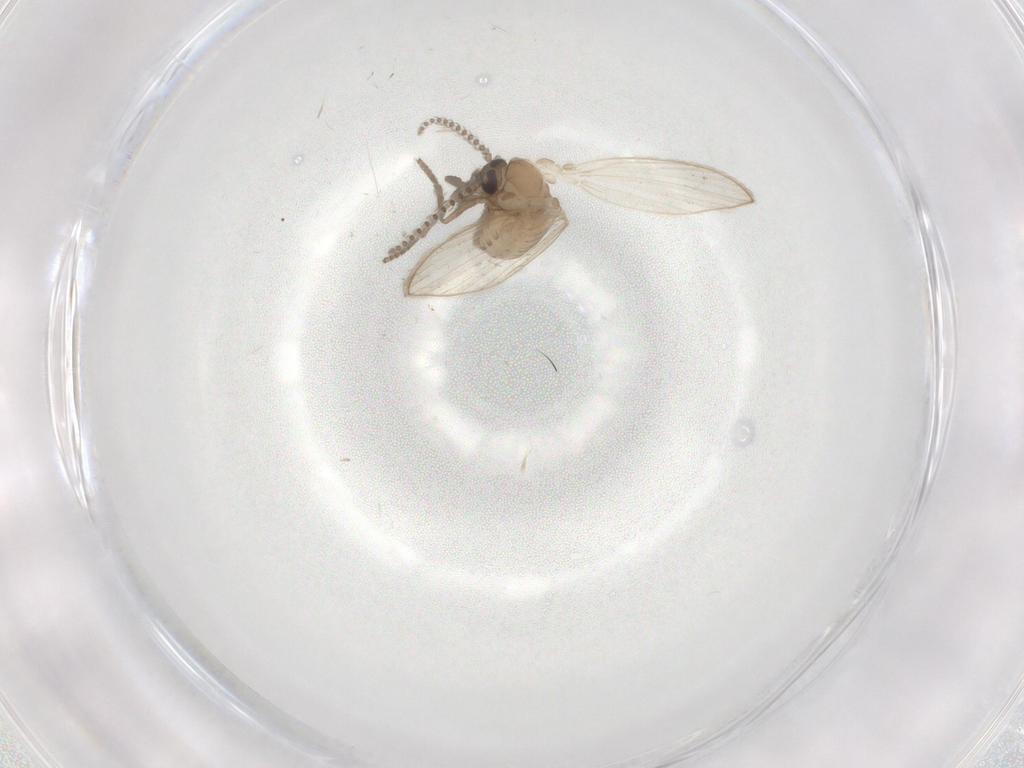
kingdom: Animalia
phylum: Arthropoda
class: Insecta
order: Diptera
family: Psychodidae
